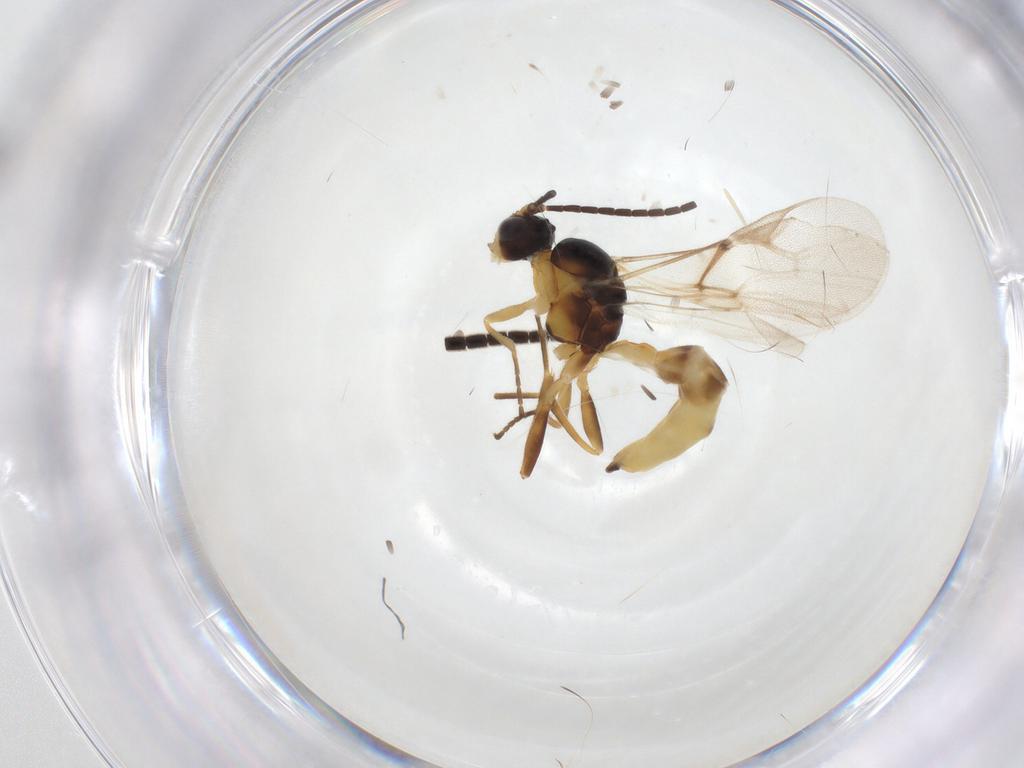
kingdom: Animalia
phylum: Arthropoda
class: Insecta
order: Hymenoptera
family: Braconidae
